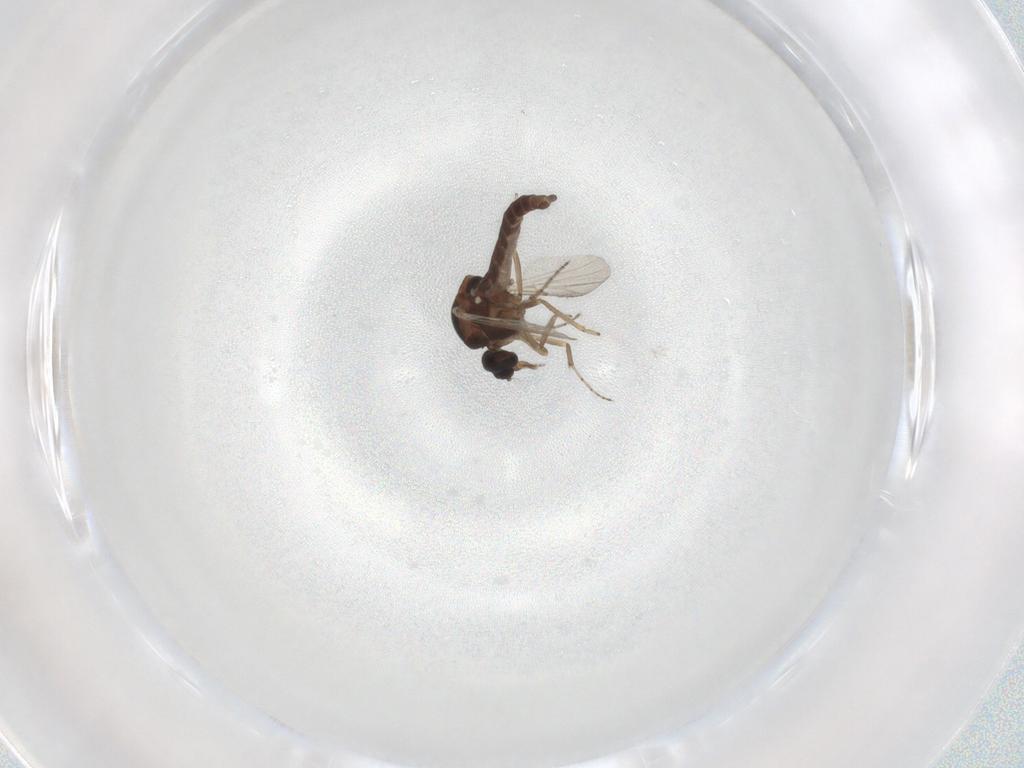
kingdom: Animalia
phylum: Arthropoda
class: Insecta
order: Diptera
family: Ceratopogonidae
